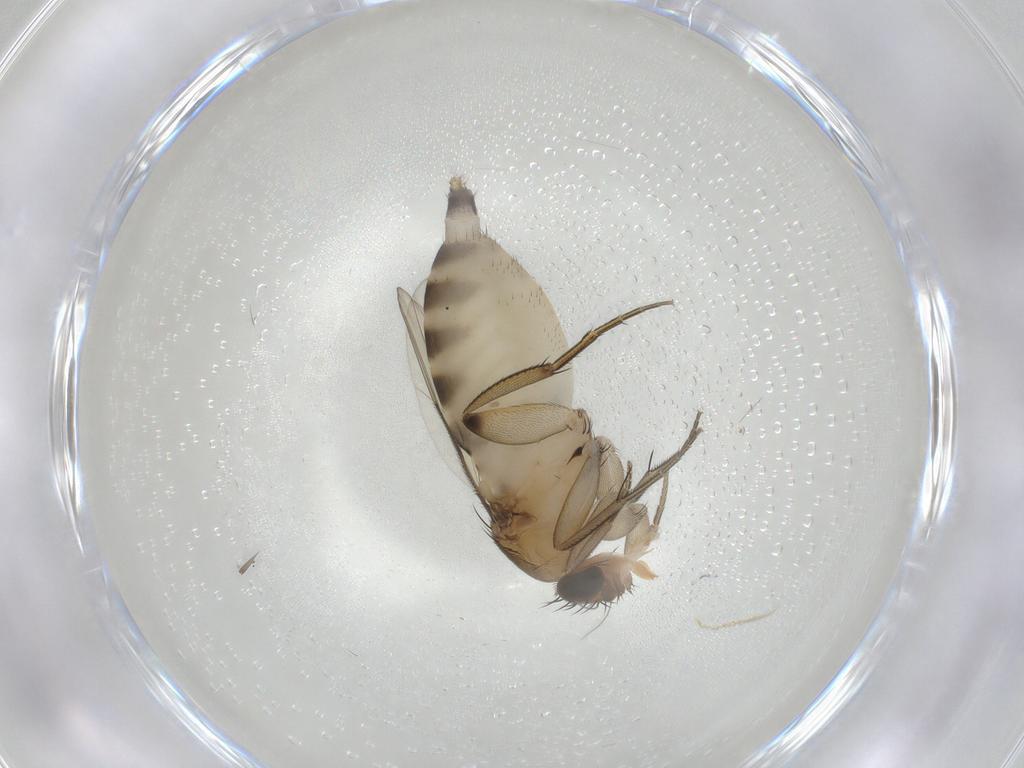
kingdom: Animalia
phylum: Arthropoda
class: Insecta
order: Diptera
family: Phoridae
